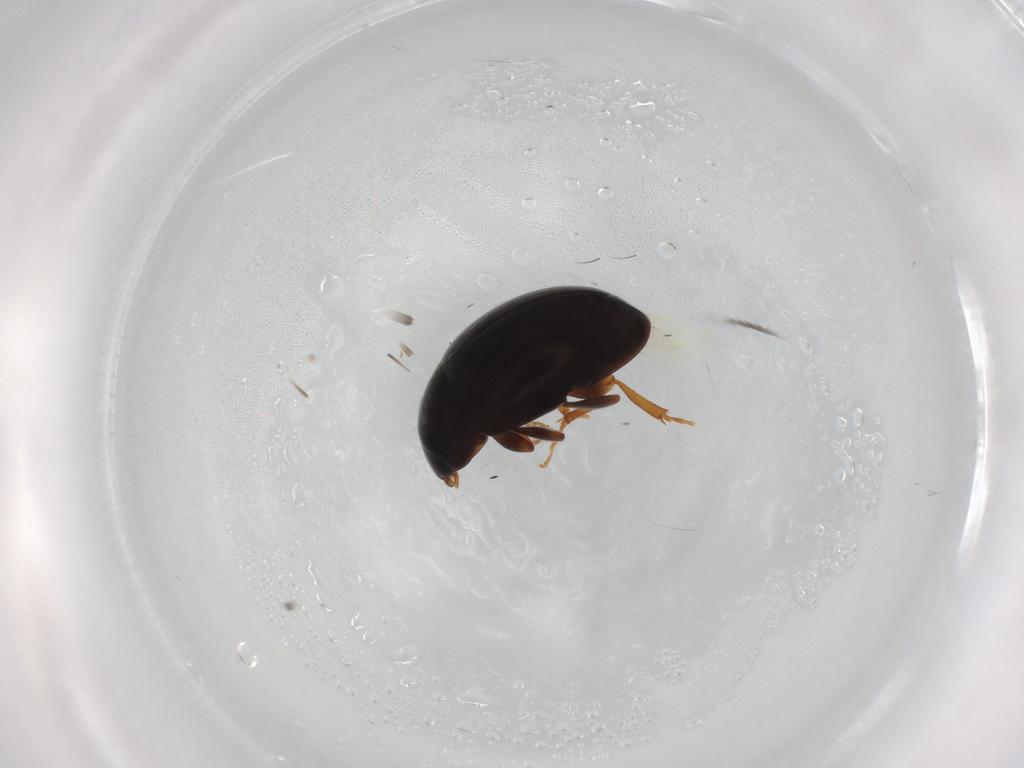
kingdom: Animalia
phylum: Arthropoda
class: Insecta
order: Coleoptera
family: Phalacridae
